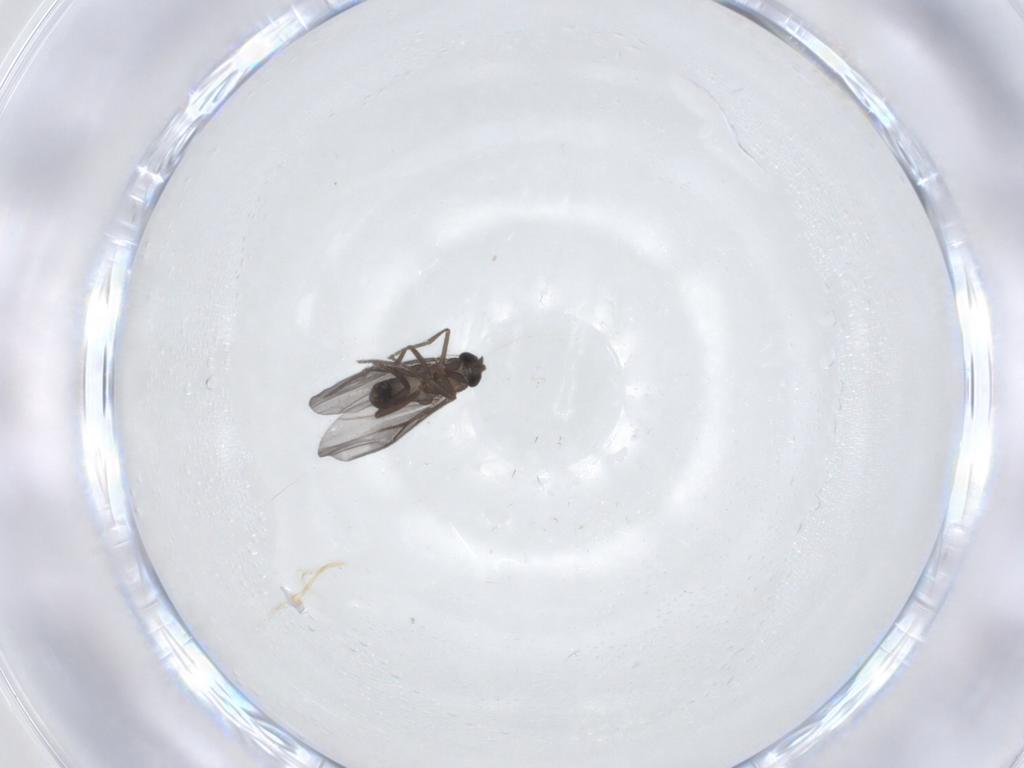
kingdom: Animalia
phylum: Arthropoda
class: Insecta
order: Diptera
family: Phoridae
